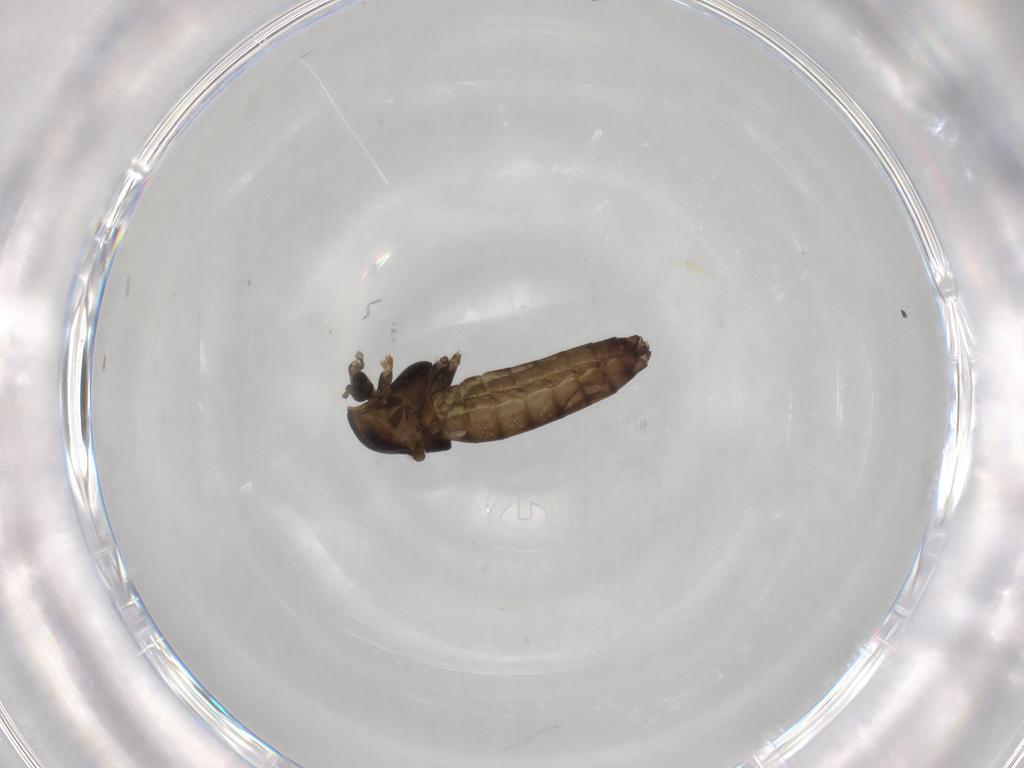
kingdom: Animalia
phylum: Arthropoda
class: Insecta
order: Diptera
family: Chironomidae
